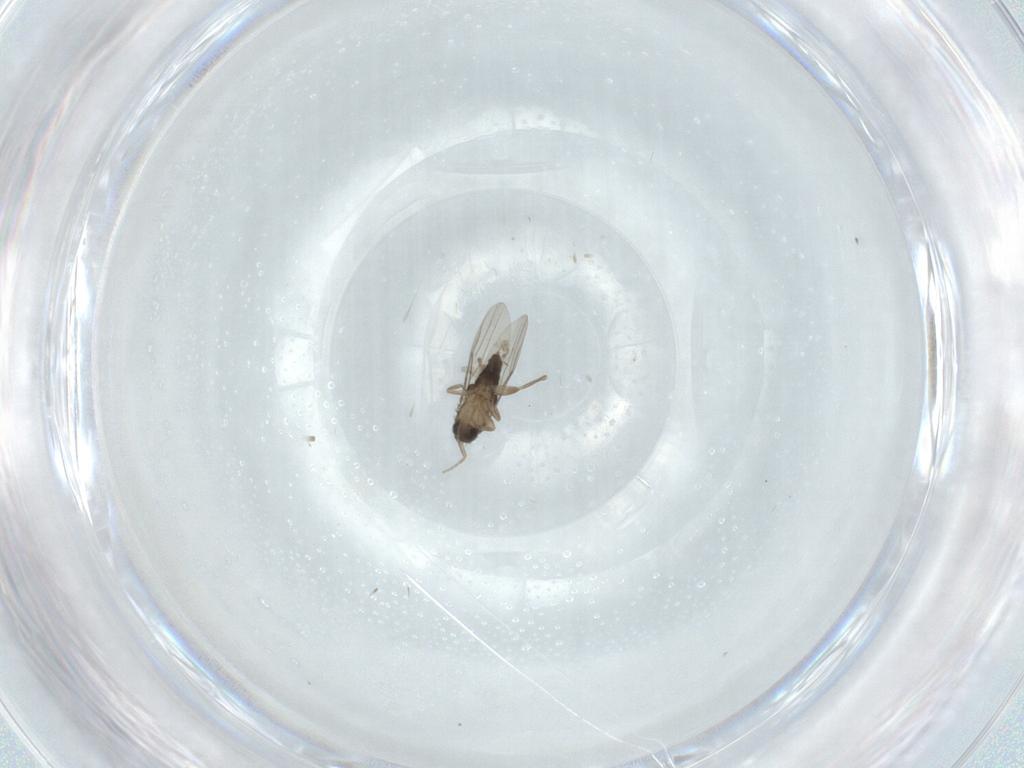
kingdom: Animalia
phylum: Arthropoda
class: Insecta
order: Diptera
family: Phoridae
